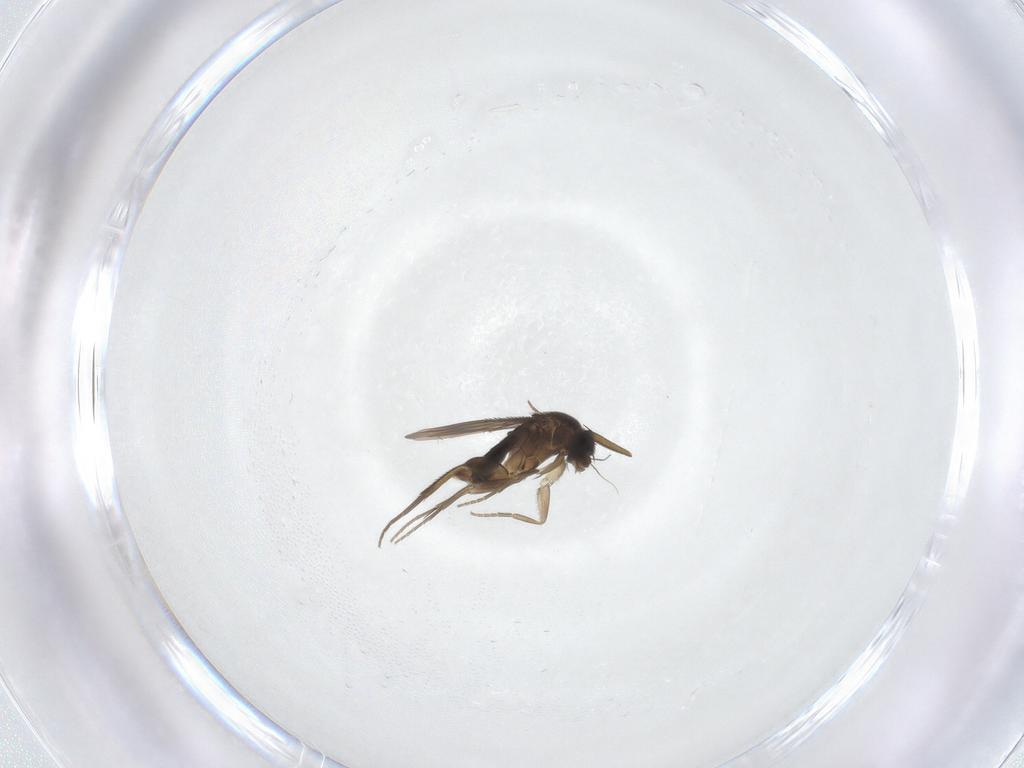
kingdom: Animalia
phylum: Arthropoda
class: Insecta
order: Diptera
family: Phoridae
